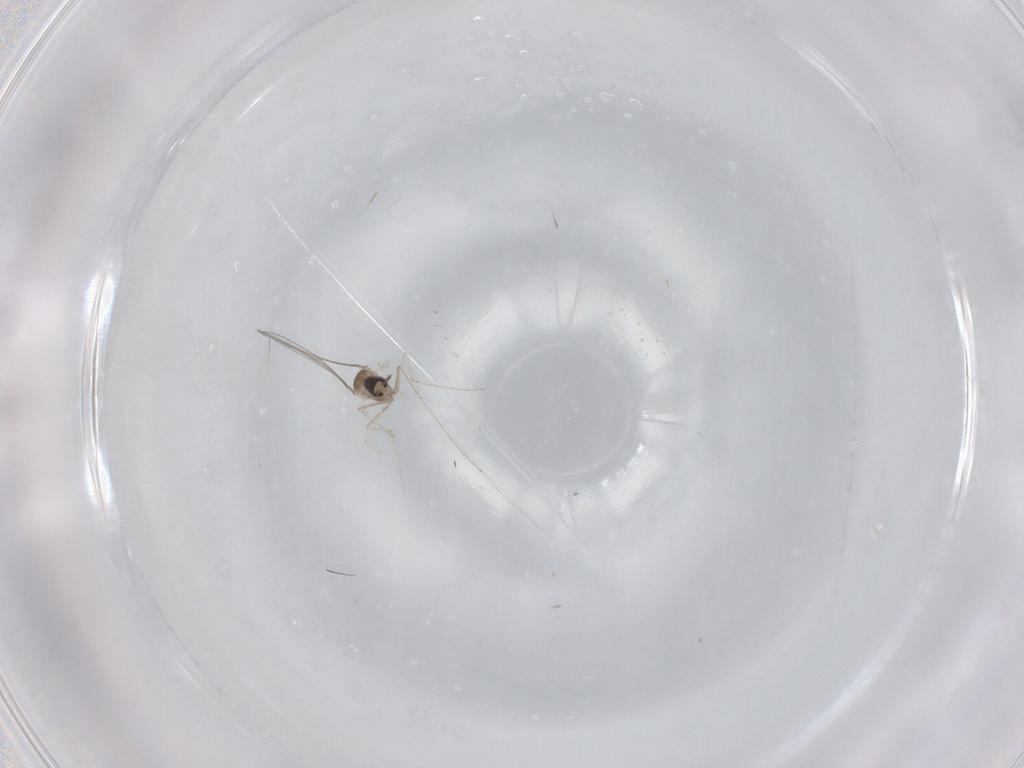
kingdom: Animalia
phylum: Arthropoda
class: Insecta
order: Diptera
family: Cecidomyiidae
